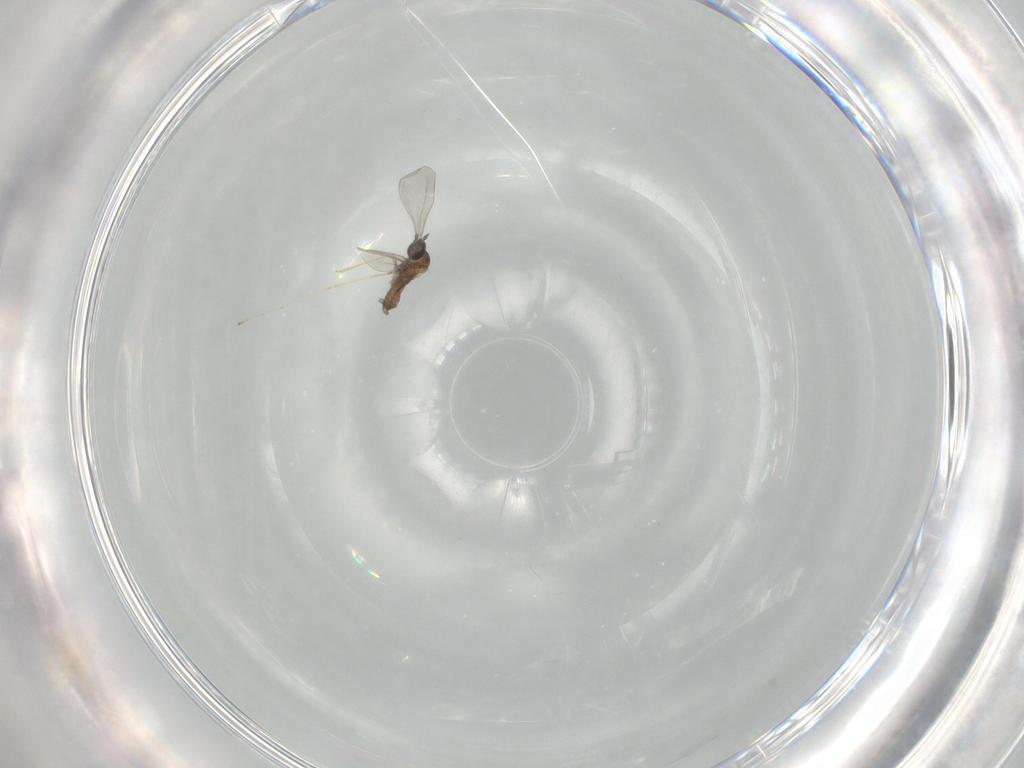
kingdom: Animalia
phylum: Arthropoda
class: Insecta
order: Diptera
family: Cecidomyiidae
